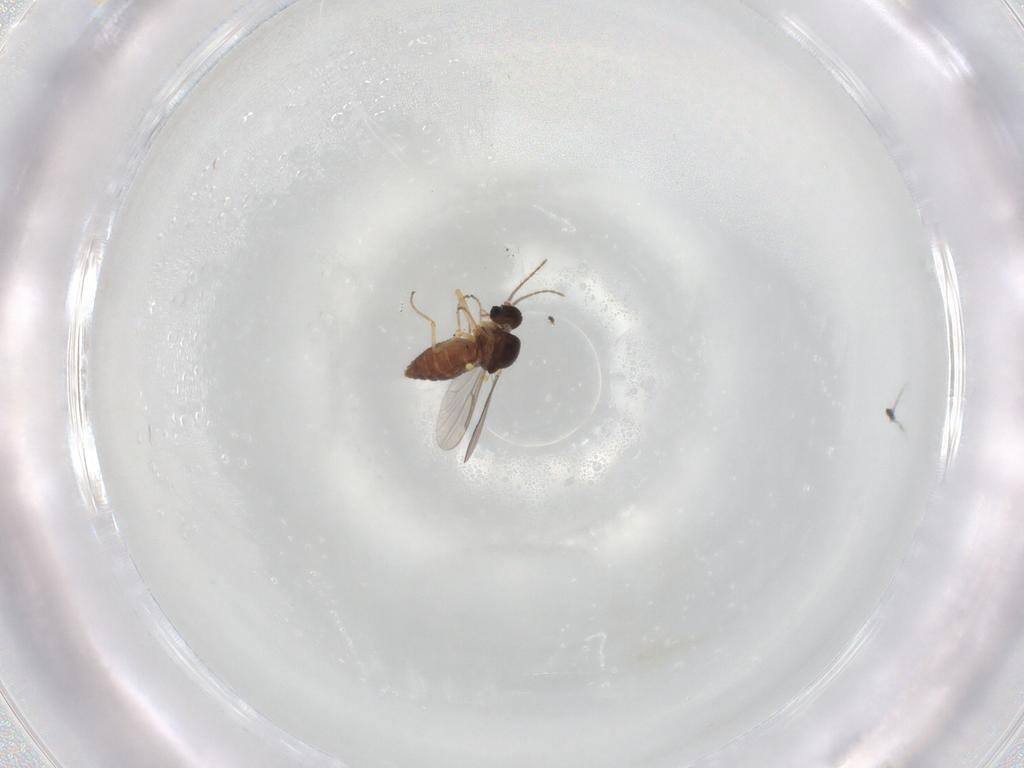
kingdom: Animalia
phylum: Arthropoda
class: Insecta
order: Diptera
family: Ceratopogonidae
